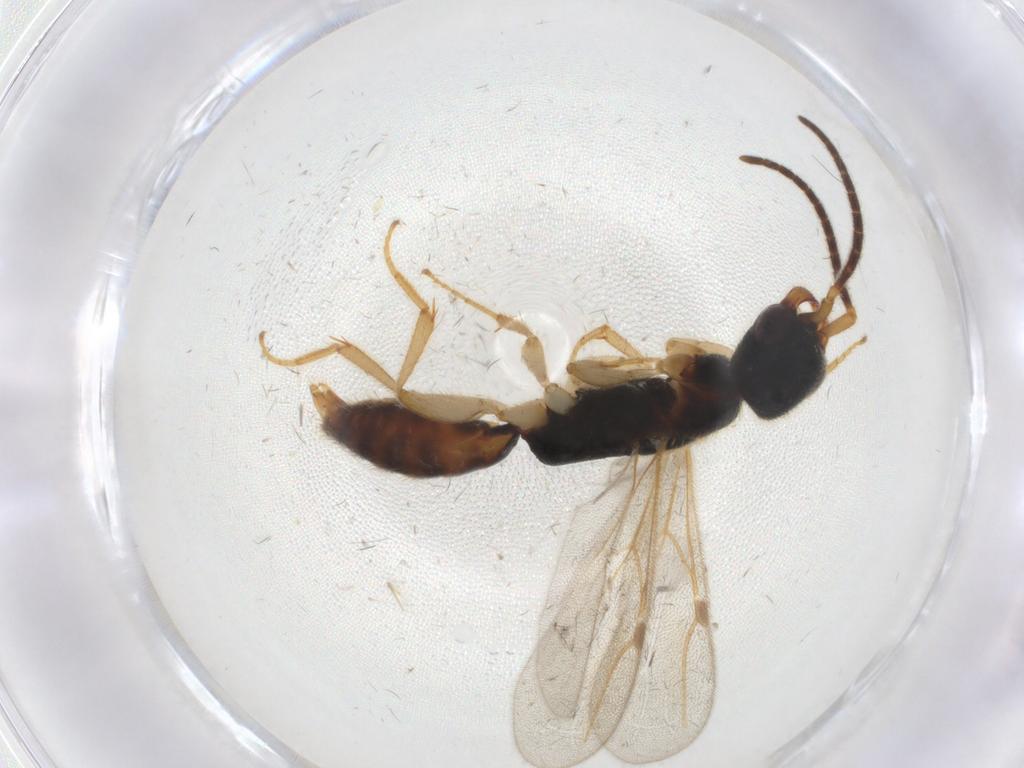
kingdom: Animalia
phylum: Arthropoda
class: Insecta
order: Hymenoptera
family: Bethylidae
